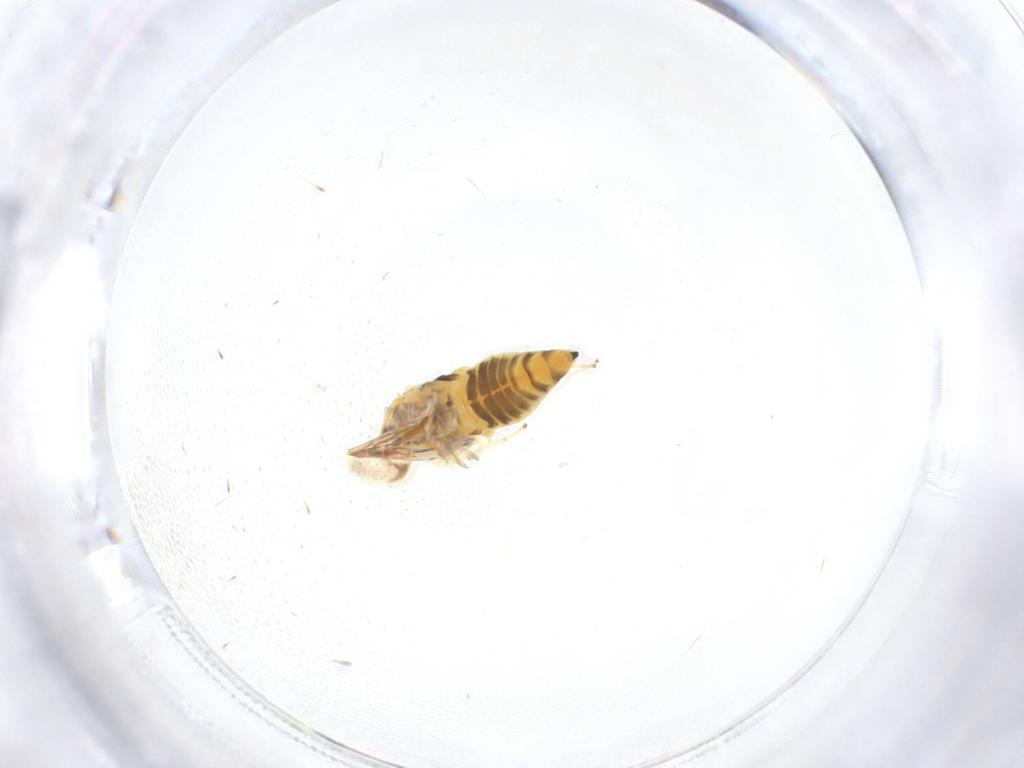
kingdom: Animalia
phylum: Arthropoda
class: Insecta
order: Hemiptera
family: Cicadellidae
